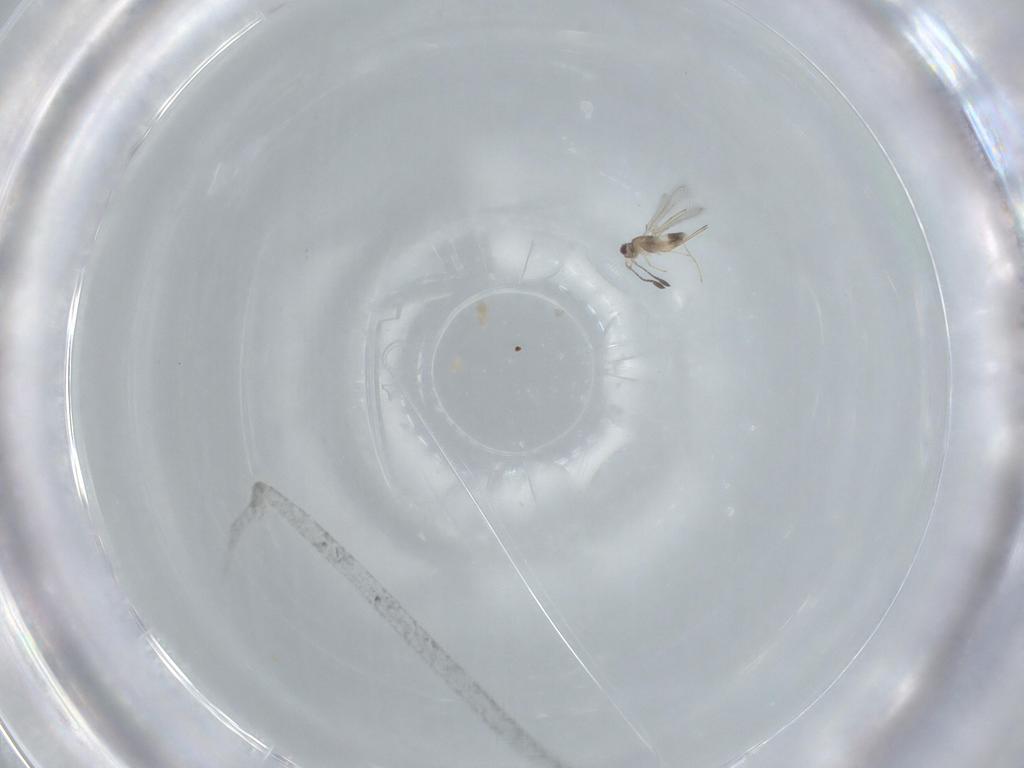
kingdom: Animalia
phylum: Arthropoda
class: Insecta
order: Hymenoptera
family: Mymaridae
